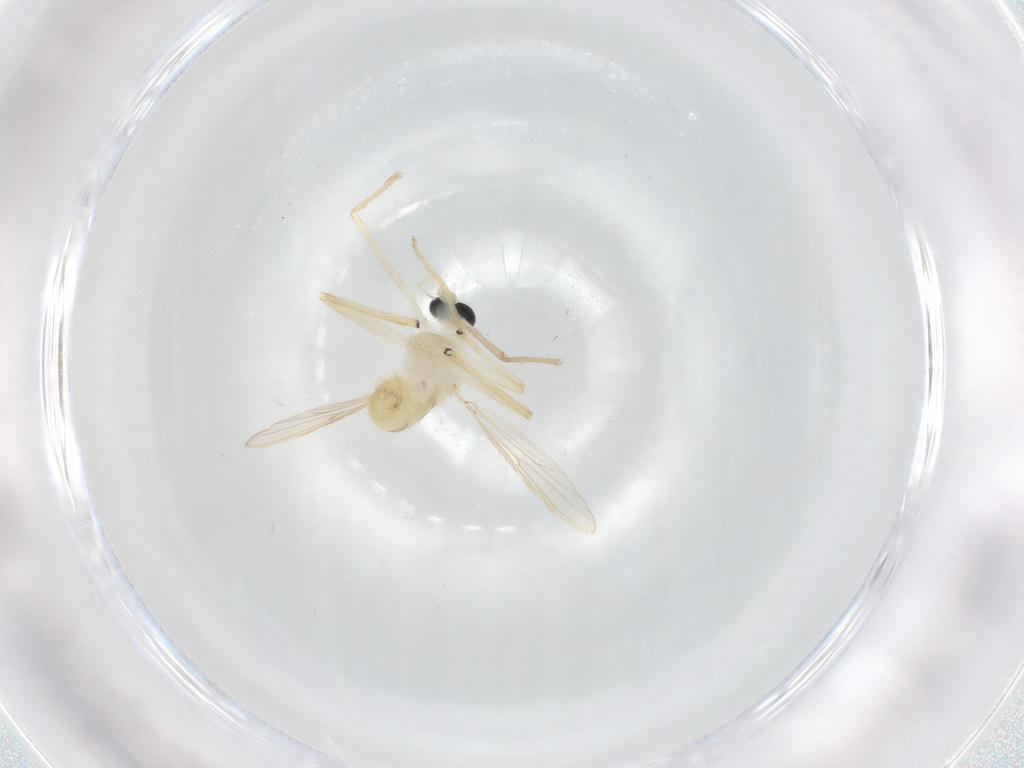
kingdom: Animalia
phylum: Arthropoda
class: Insecta
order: Diptera
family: Chironomidae
